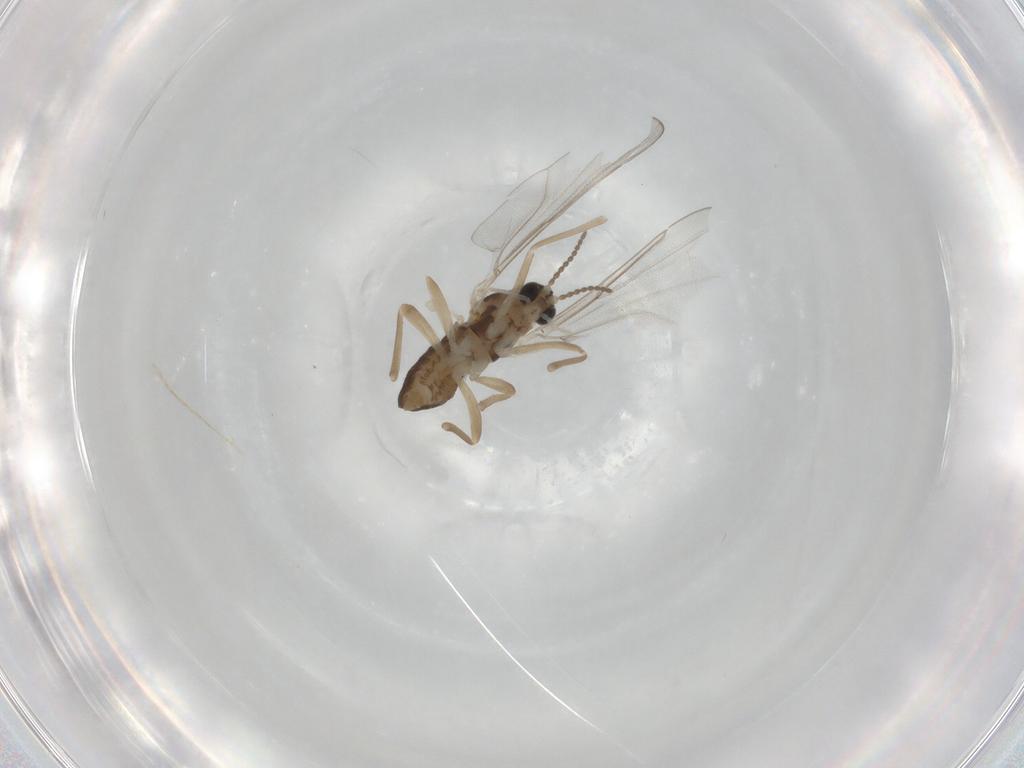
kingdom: Animalia
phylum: Arthropoda
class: Insecta
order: Diptera
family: Cecidomyiidae
